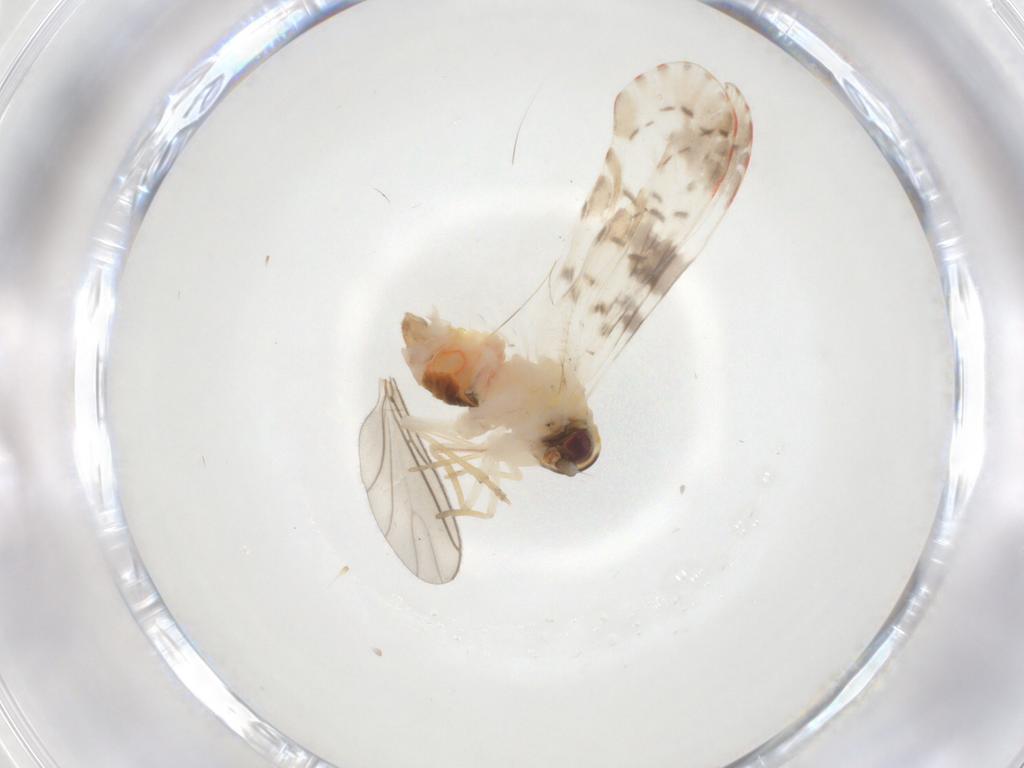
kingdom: Animalia
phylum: Arthropoda
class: Insecta
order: Hemiptera
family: Derbidae
